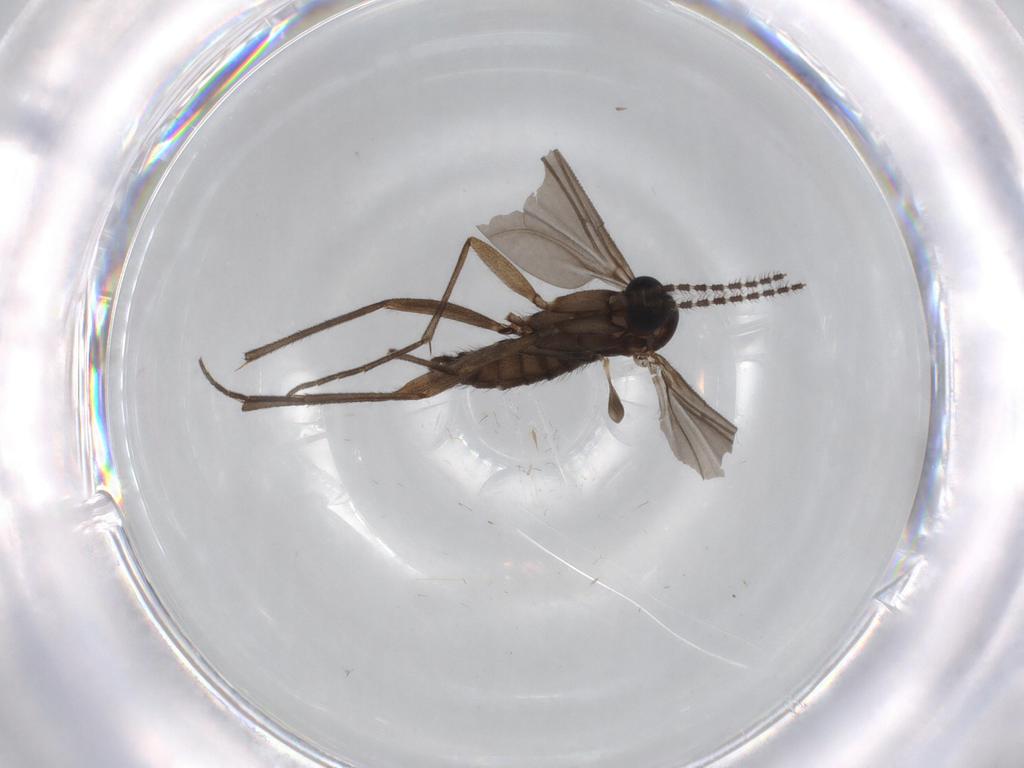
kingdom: Animalia
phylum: Arthropoda
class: Insecta
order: Diptera
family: Sciaridae
